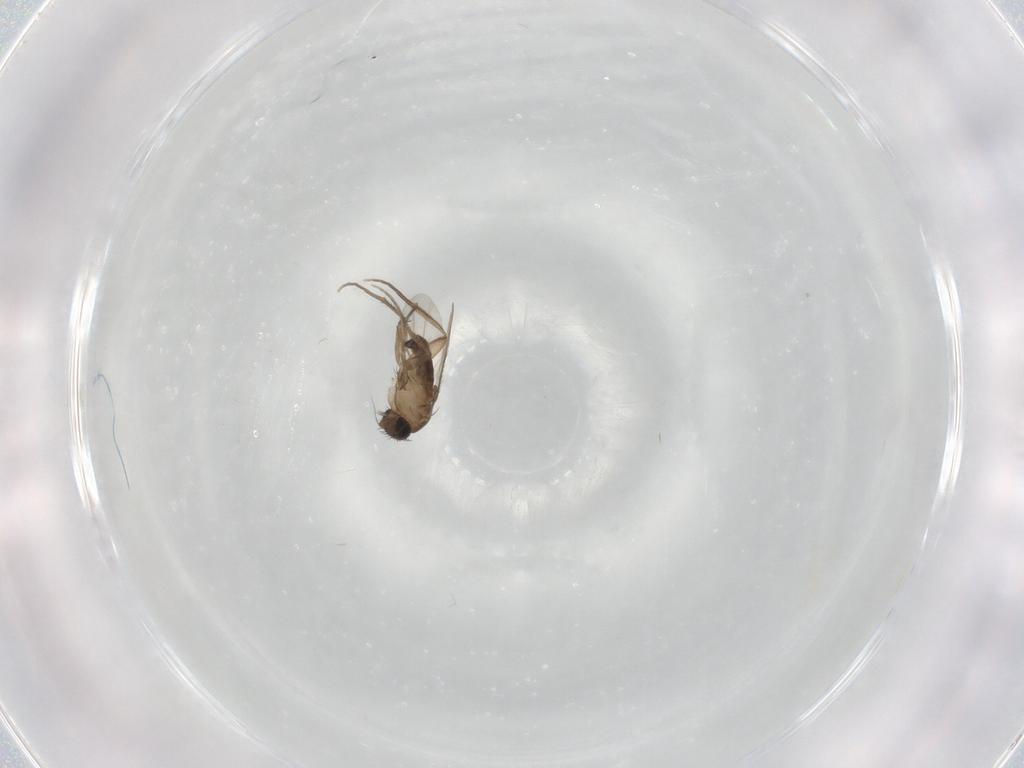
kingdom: Animalia
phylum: Arthropoda
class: Insecta
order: Diptera
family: Phoridae
